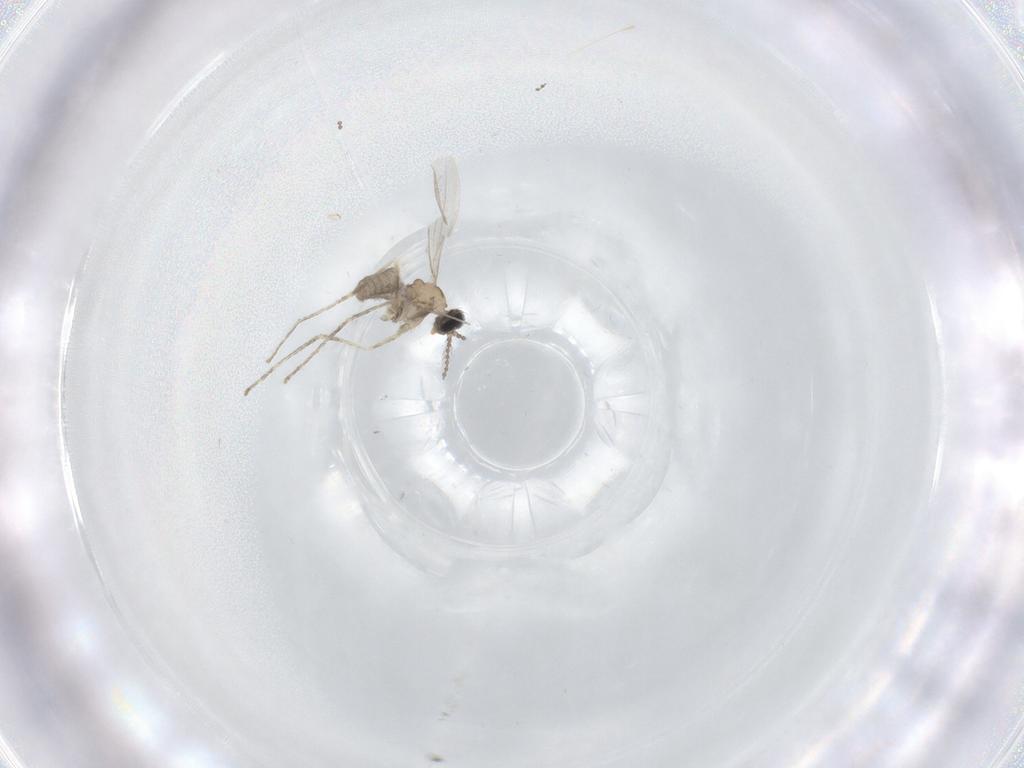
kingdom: Animalia
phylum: Arthropoda
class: Insecta
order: Diptera
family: Cecidomyiidae
